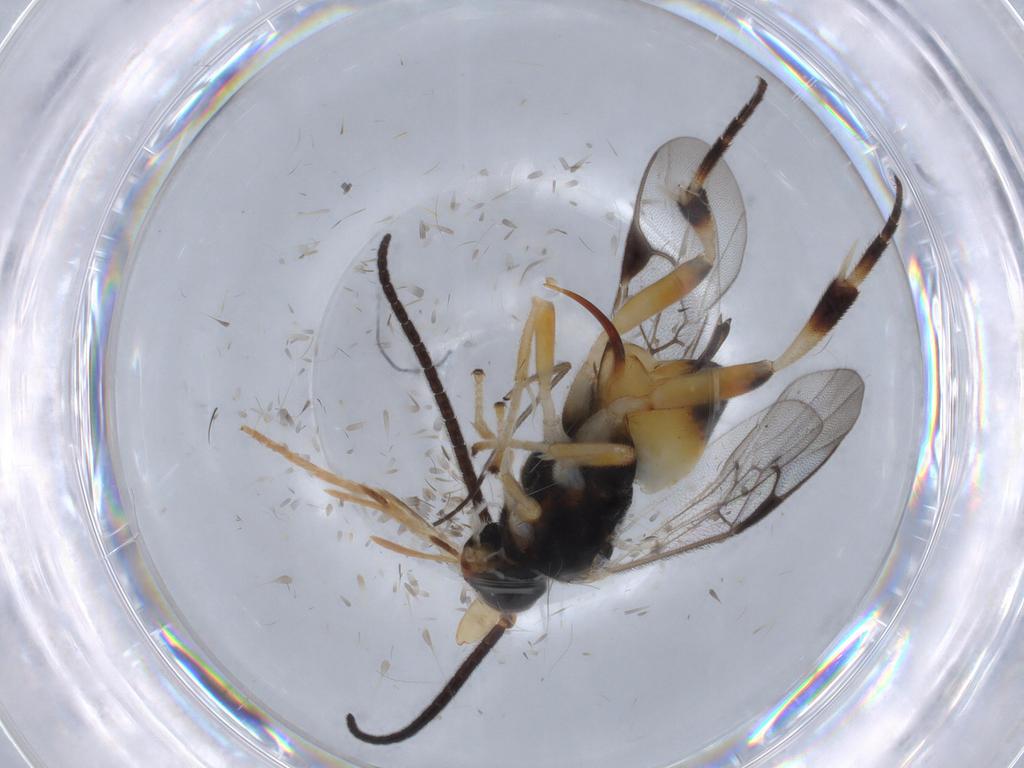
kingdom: Animalia
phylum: Arthropoda
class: Insecta
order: Hymenoptera
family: Braconidae
